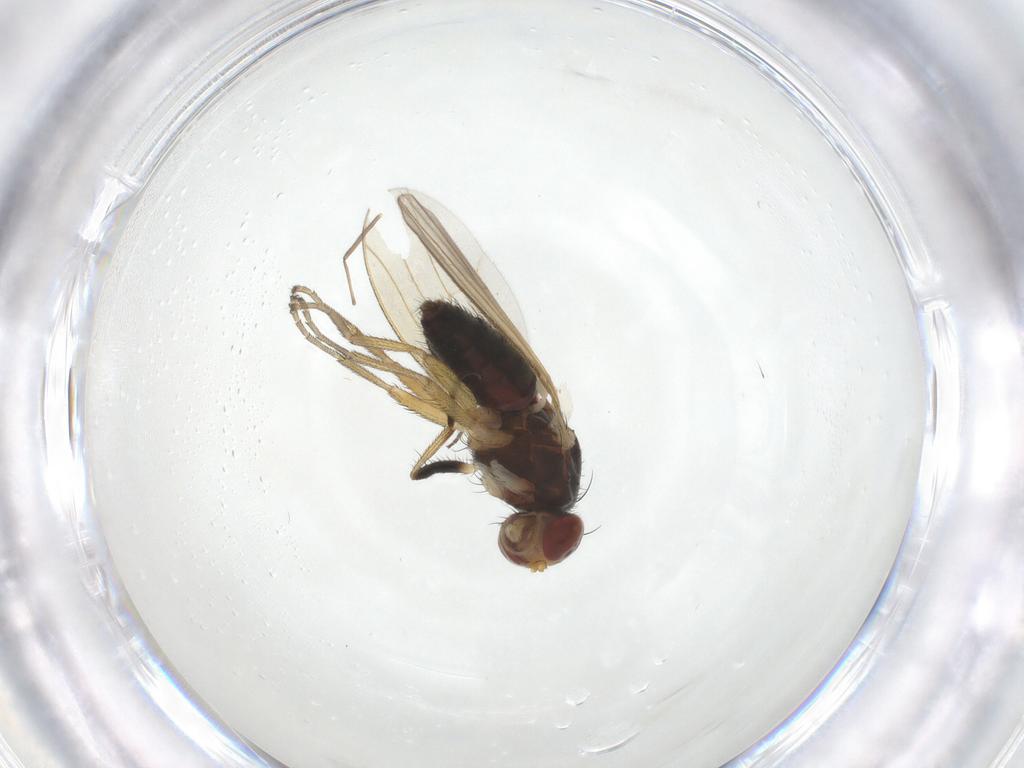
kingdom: Animalia
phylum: Arthropoda
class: Insecta
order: Diptera
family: Heleomyzidae
